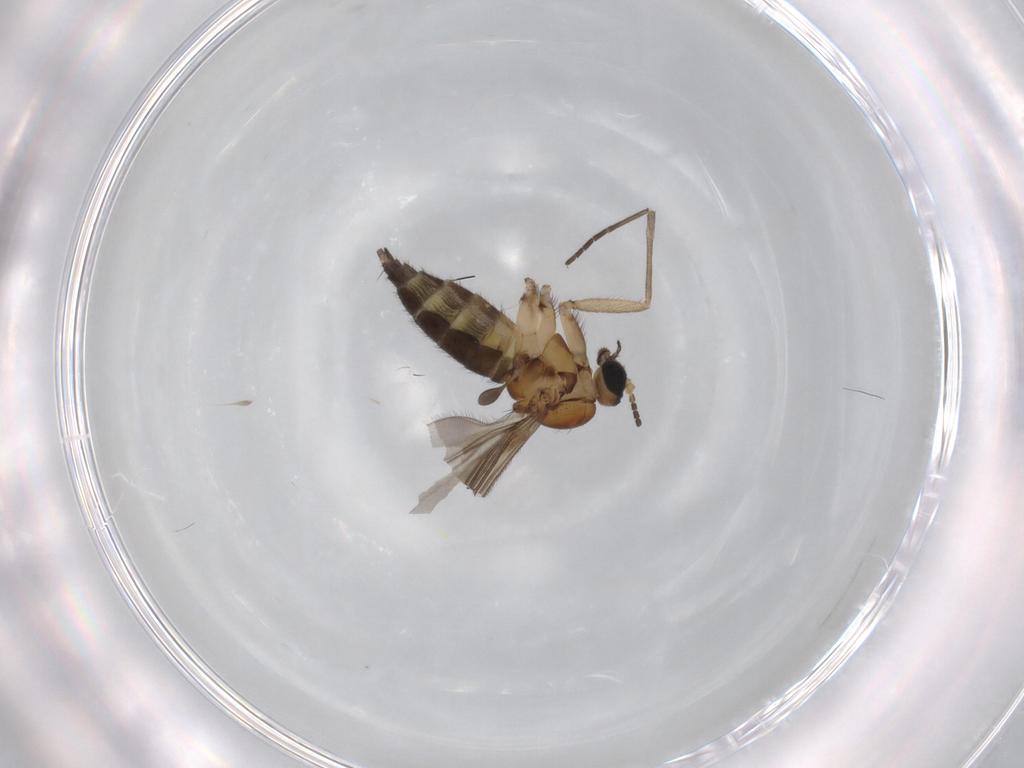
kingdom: Animalia
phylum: Arthropoda
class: Insecta
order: Diptera
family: Sciaridae
